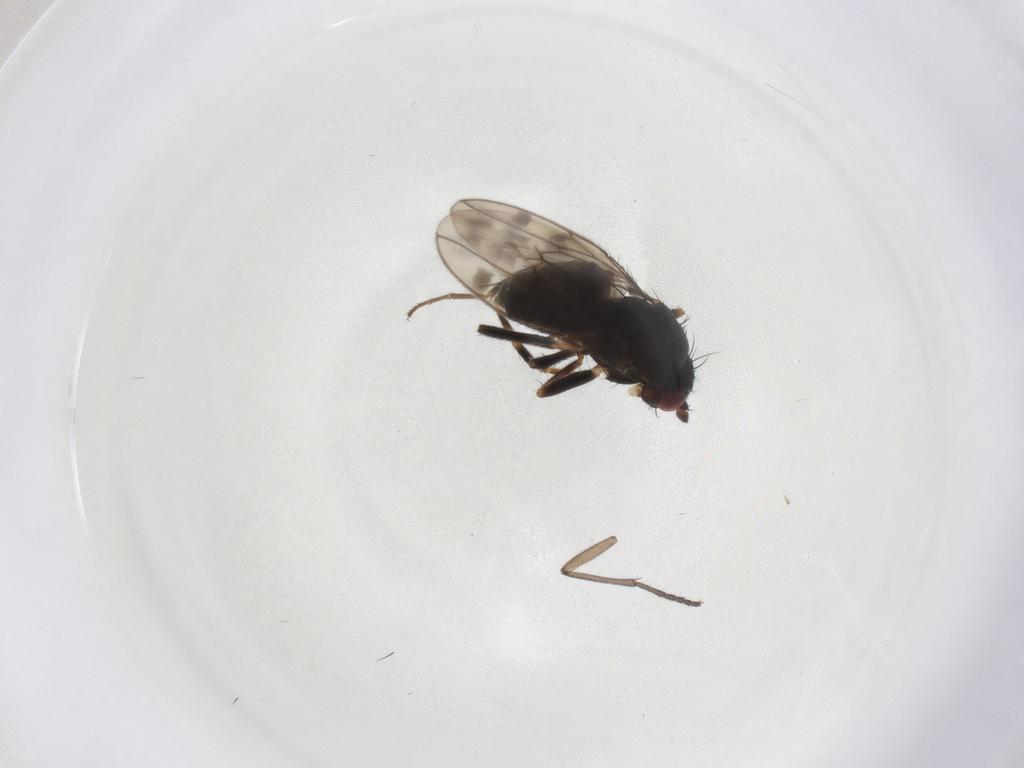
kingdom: Animalia
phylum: Arthropoda
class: Insecta
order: Diptera
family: Sphaeroceridae
